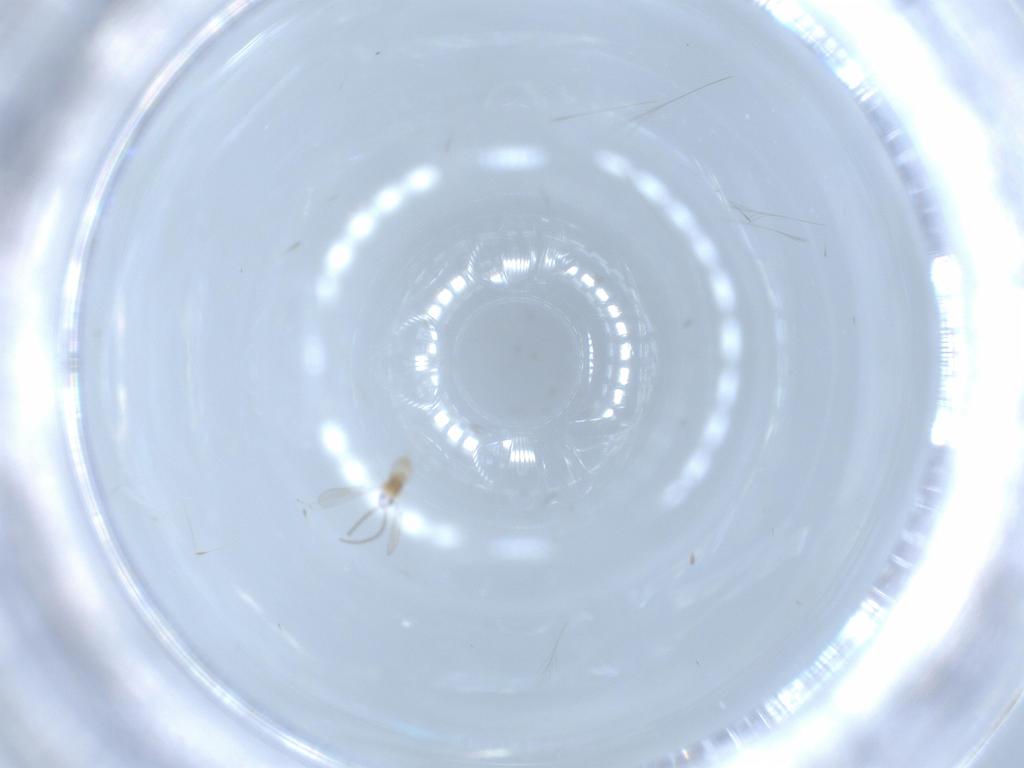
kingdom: Animalia
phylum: Arthropoda
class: Insecta
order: Diptera
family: Cecidomyiidae
